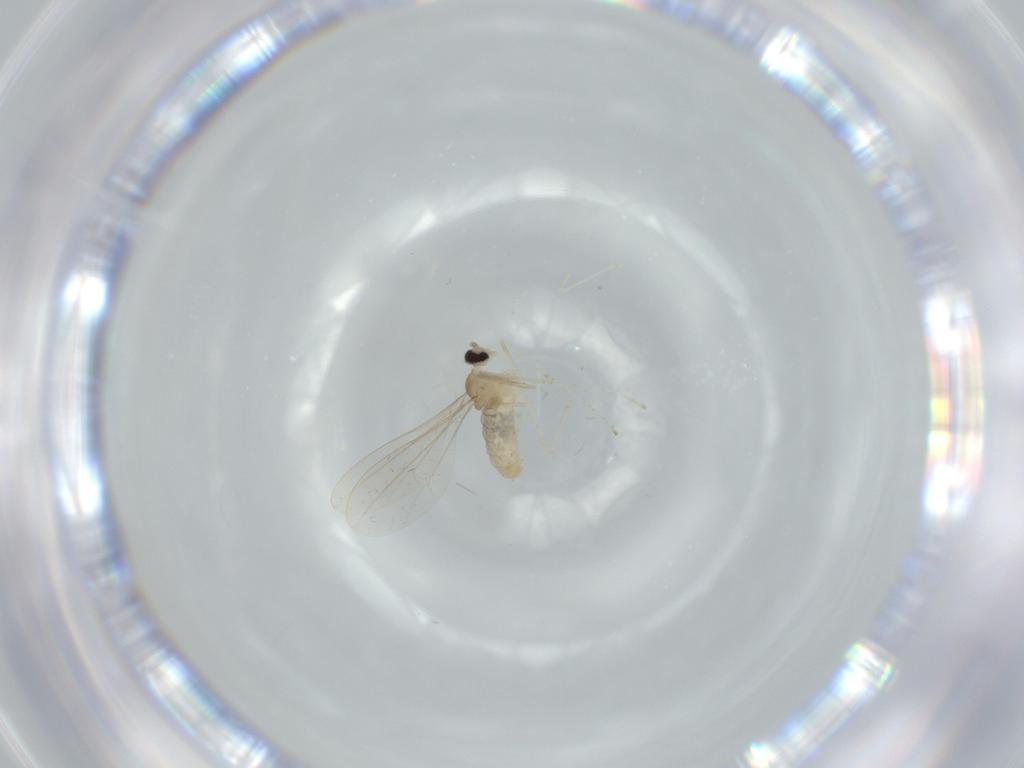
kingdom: Animalia
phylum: Arthropoda
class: Insecta
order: Diptera
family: Cecidomyiidae
